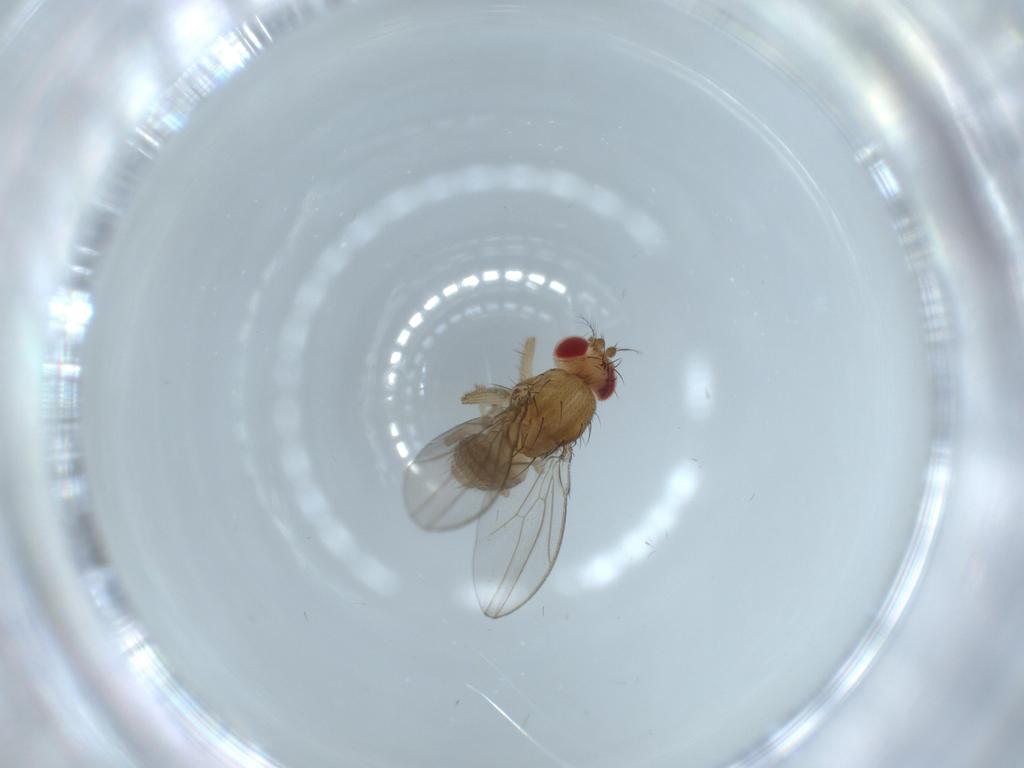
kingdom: Animalia
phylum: Arthropoda
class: Insecta
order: Diptera
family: Drosophilidae
